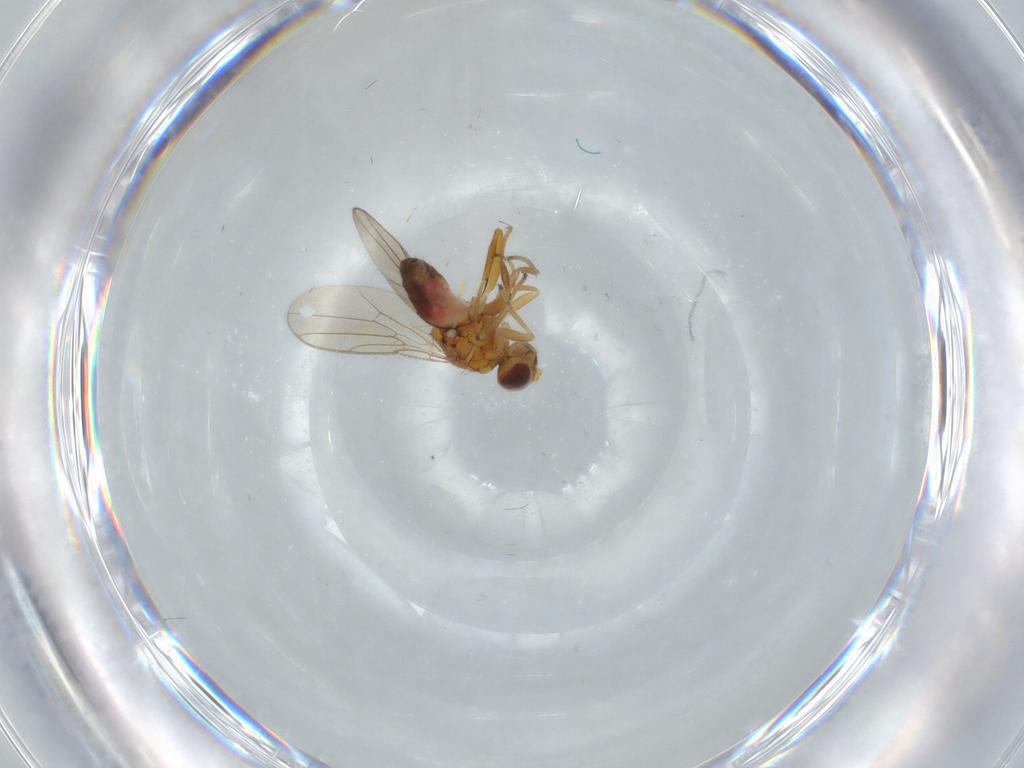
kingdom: Animalia
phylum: Arthropoda
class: Insecta
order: Diptera
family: Chloropidae
